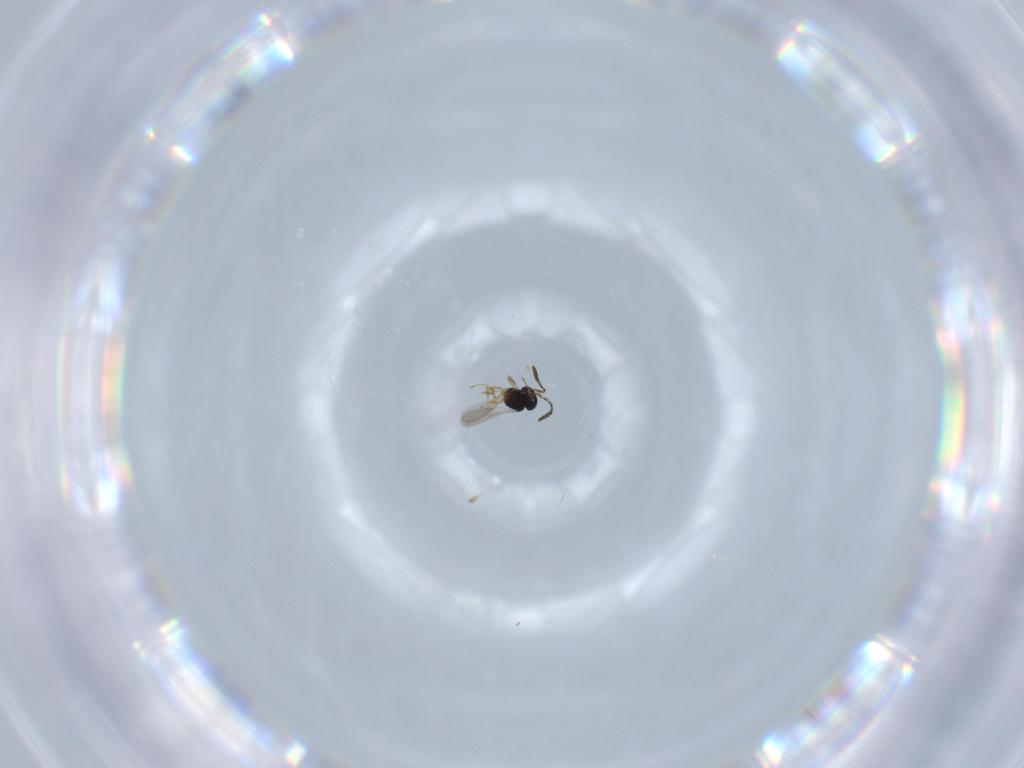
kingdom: Animalia
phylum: Arthropoda
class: Insecta
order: Hymenoptera
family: Scelionidae
